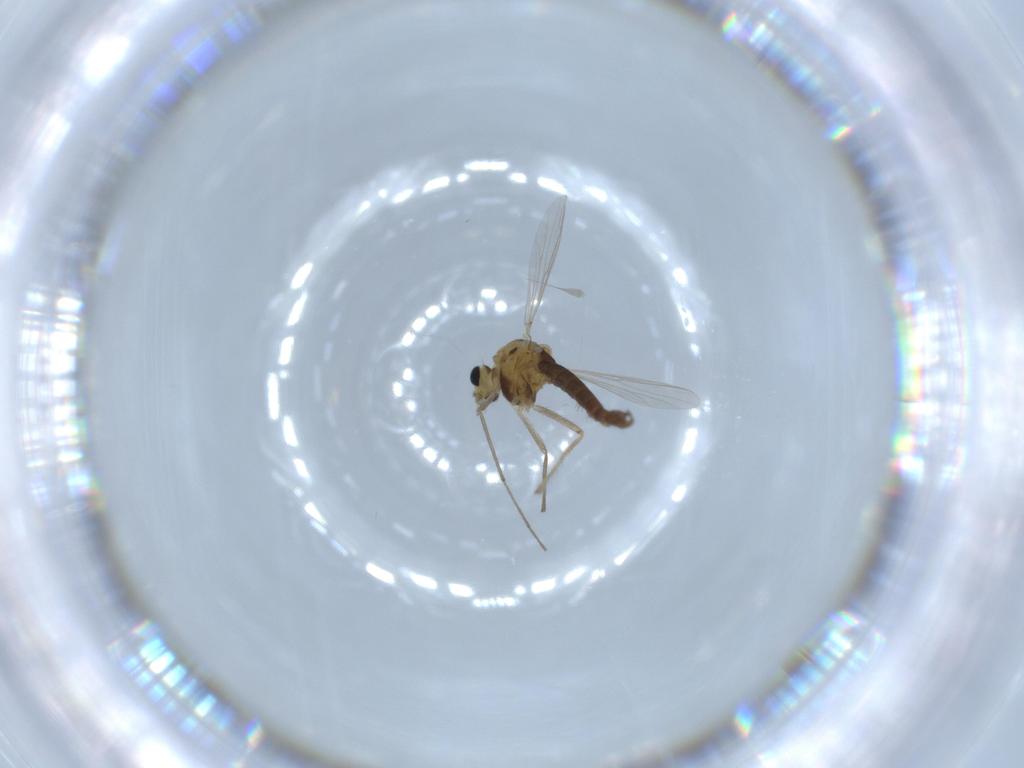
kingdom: Animalia
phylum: Arthropoda
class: Insecta
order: Diptera
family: Chironomidae
